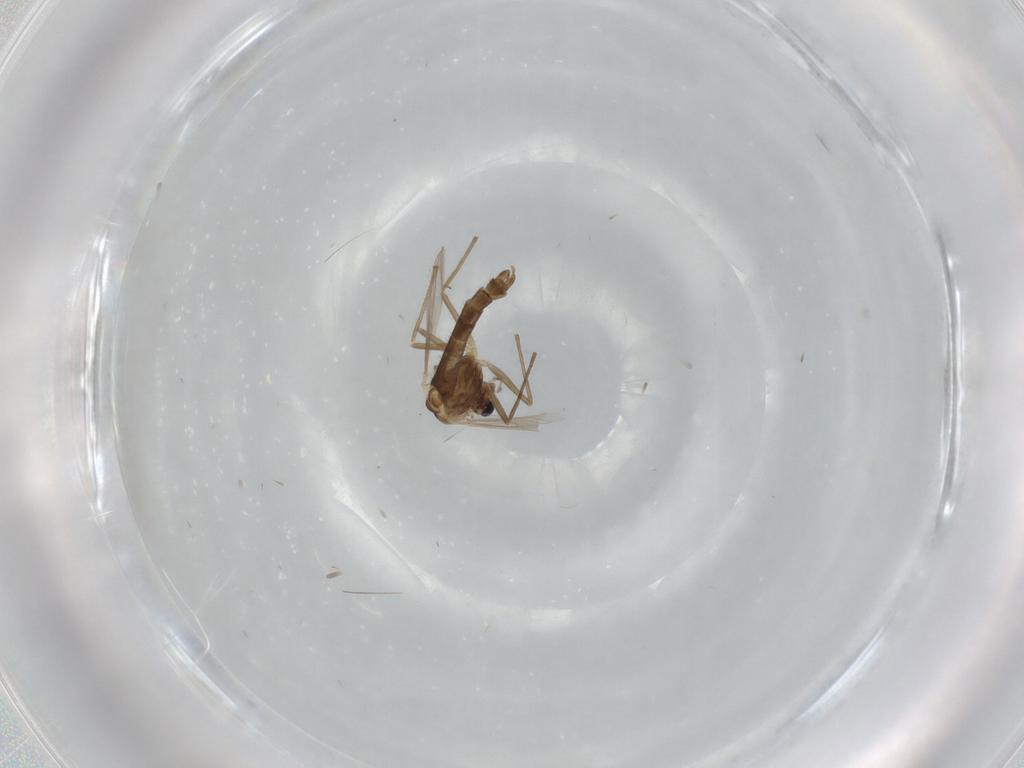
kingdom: Animalia
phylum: Arthropoda
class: Insecta
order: Diptera
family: Chironomidae
